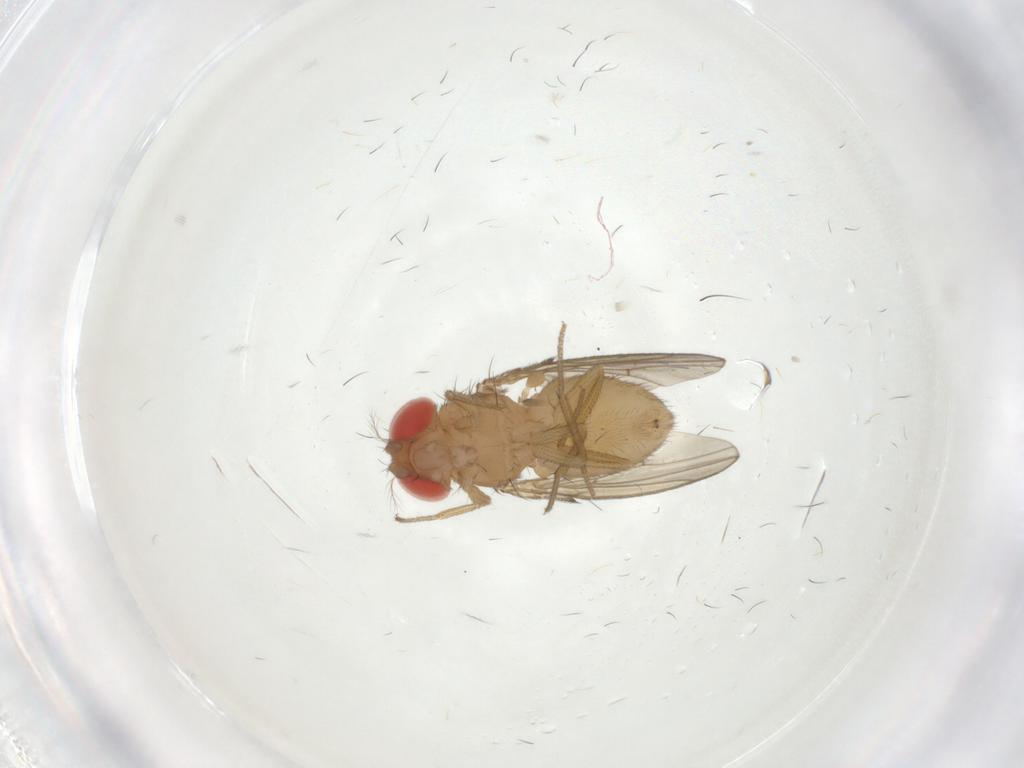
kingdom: Animalia
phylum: Arthropoda
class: Insecta
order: Diptera
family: Drosophilidae
